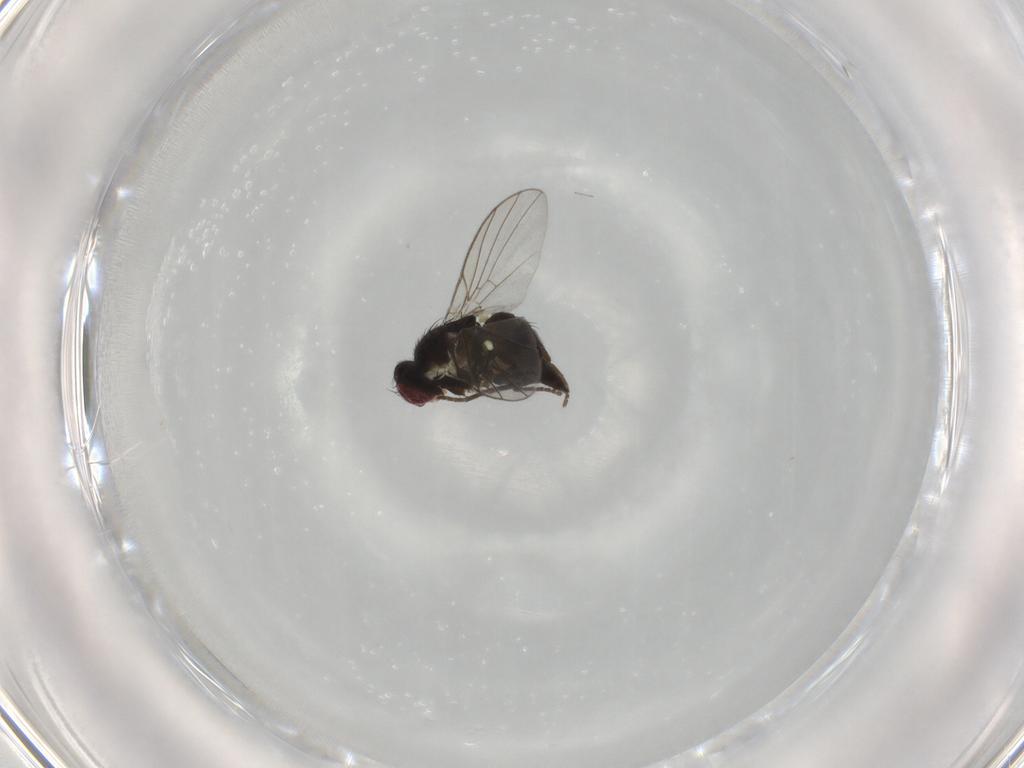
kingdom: Animalia
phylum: Arthropoda
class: Insecta
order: Diptera
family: Agromyzidae
